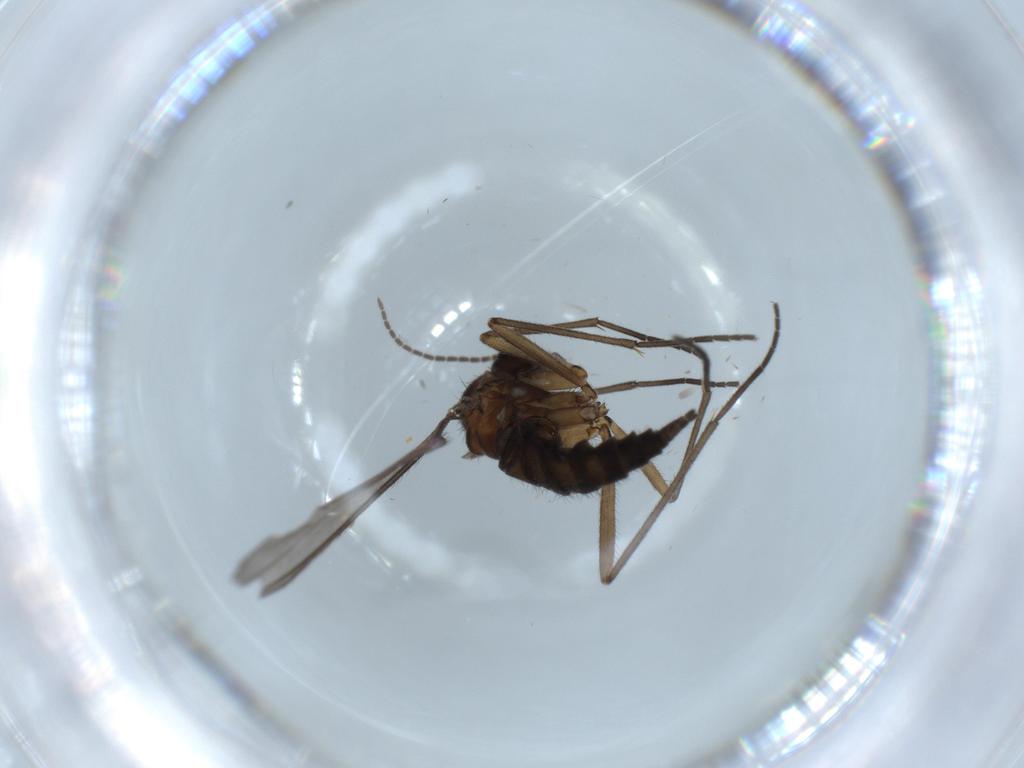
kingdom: Animalia
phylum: Arthropoda
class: Insecta
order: Diptera
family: Sciaridae
